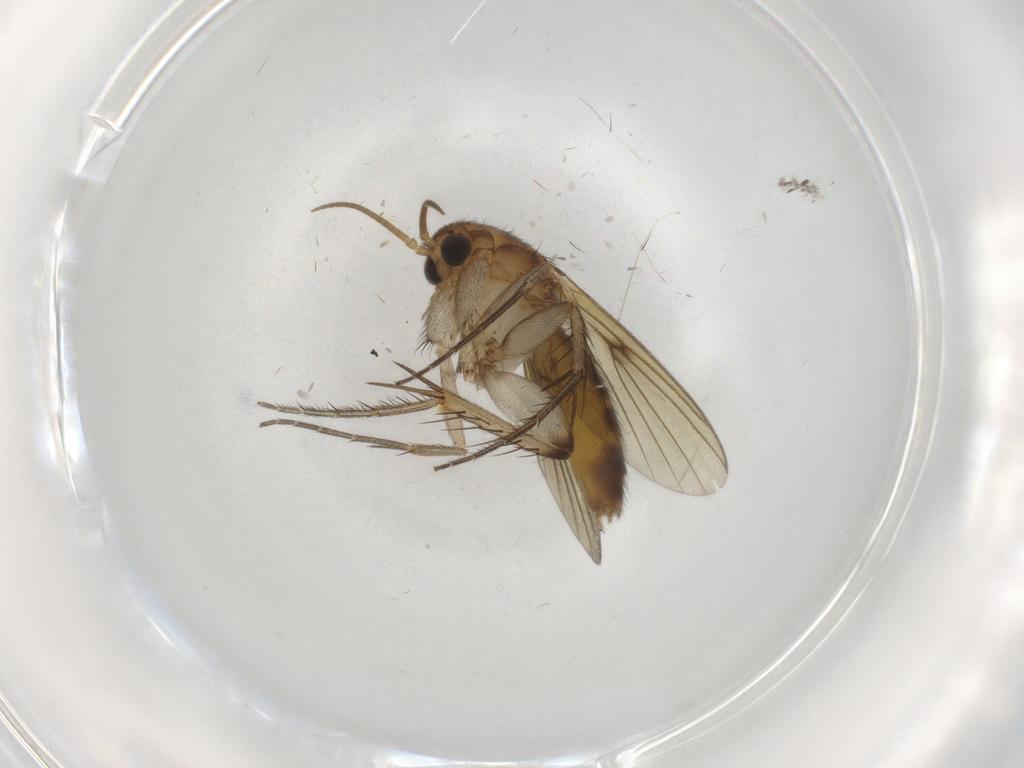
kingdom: Animalia
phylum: Arthropoda
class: Insecta
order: Diptera
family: Cecidomyiidae
